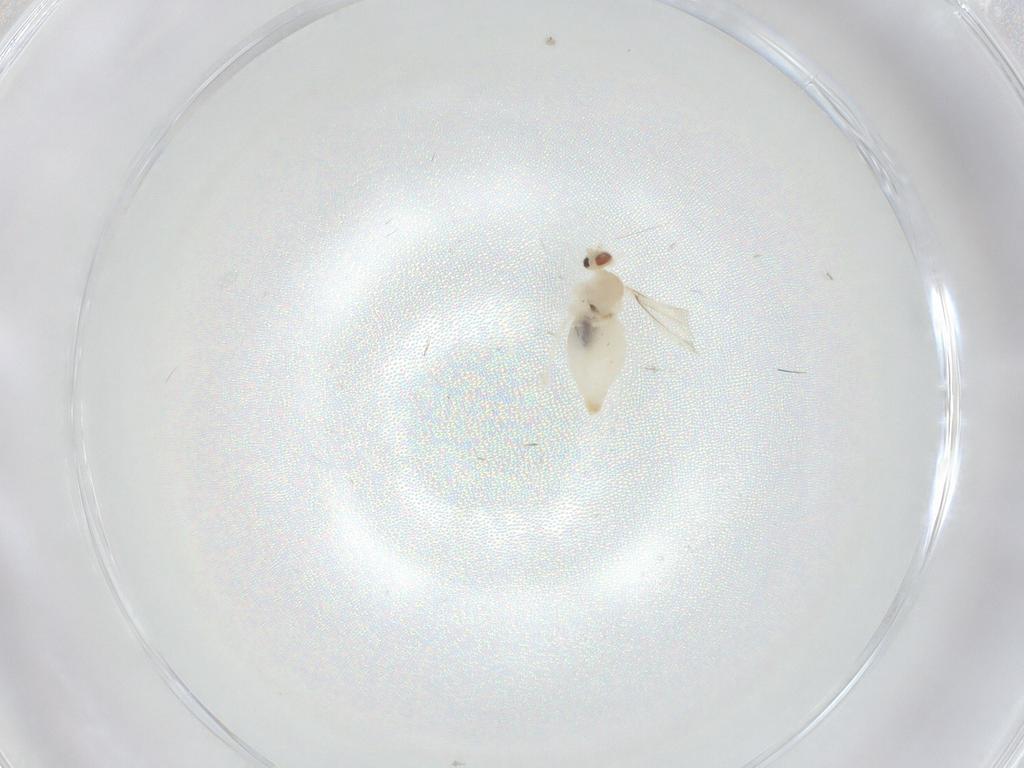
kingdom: Animalia
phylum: Arthropoda
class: Insecta
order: Diptera
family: Cecidomyiidae
